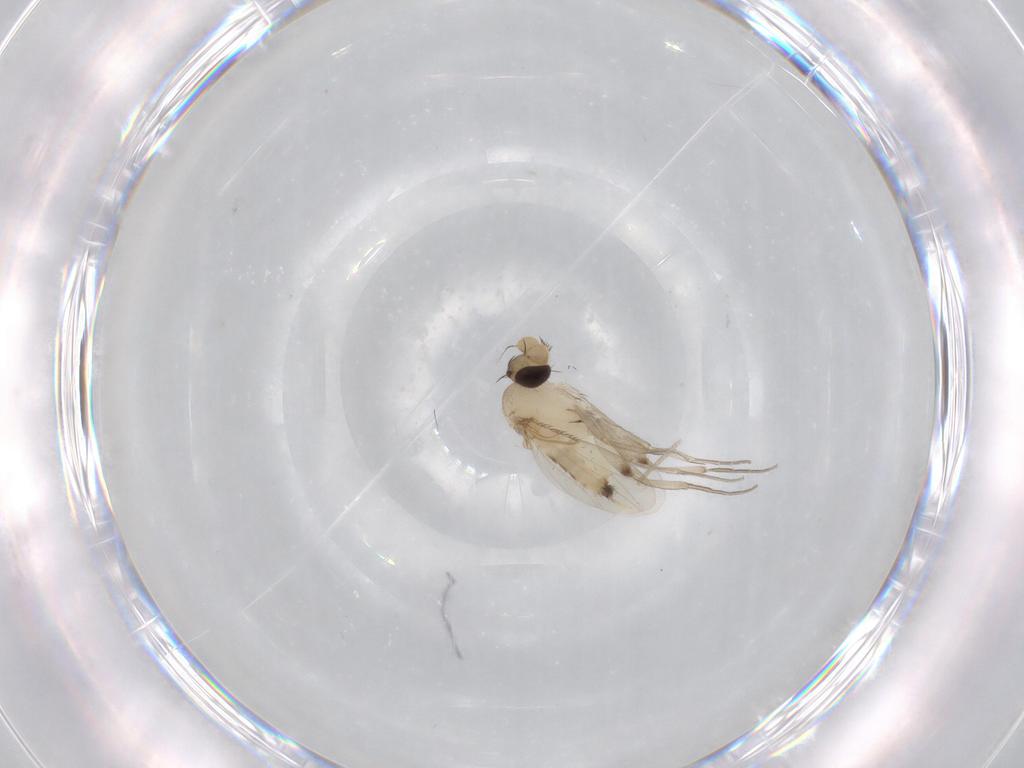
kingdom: Animalia
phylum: Arthropoda
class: Insecta
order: Diptera
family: Phoridae
